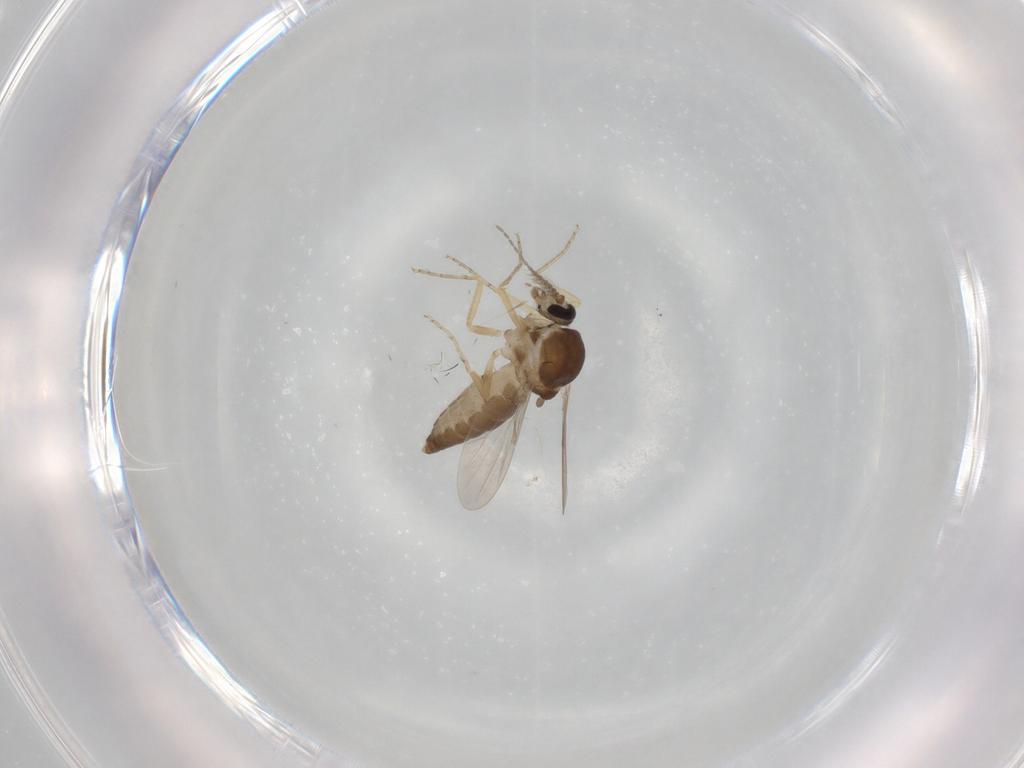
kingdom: Animalia
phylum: Arthropoda
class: Insecta
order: Diptera
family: Ceratopogonidae
